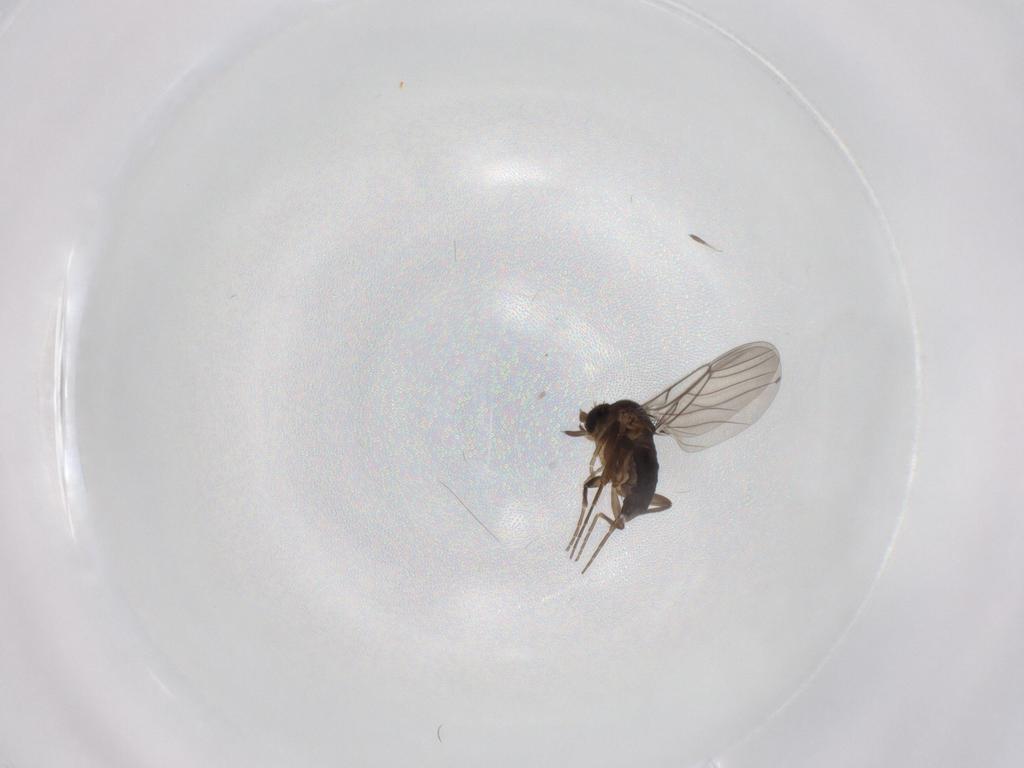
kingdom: Animalia
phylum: Arthropoda
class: Insecta
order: Diptera
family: Phoridae
